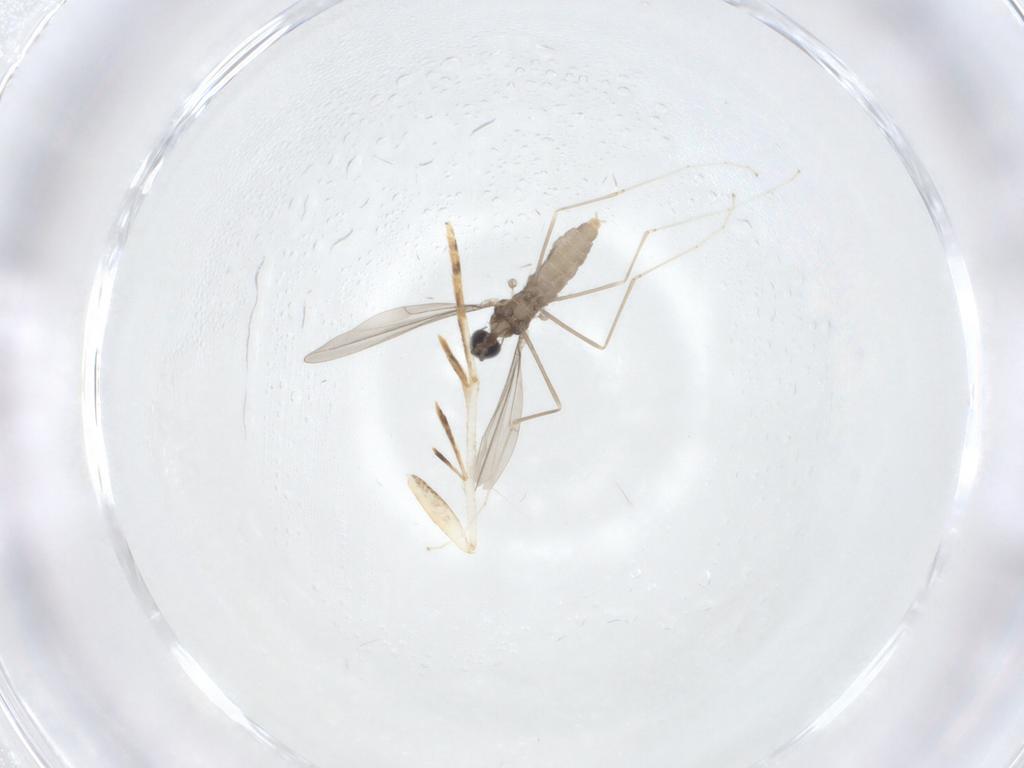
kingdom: Animalia
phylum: Arthropoda
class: Insecta
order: Diptera
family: Cecidomyiidae
